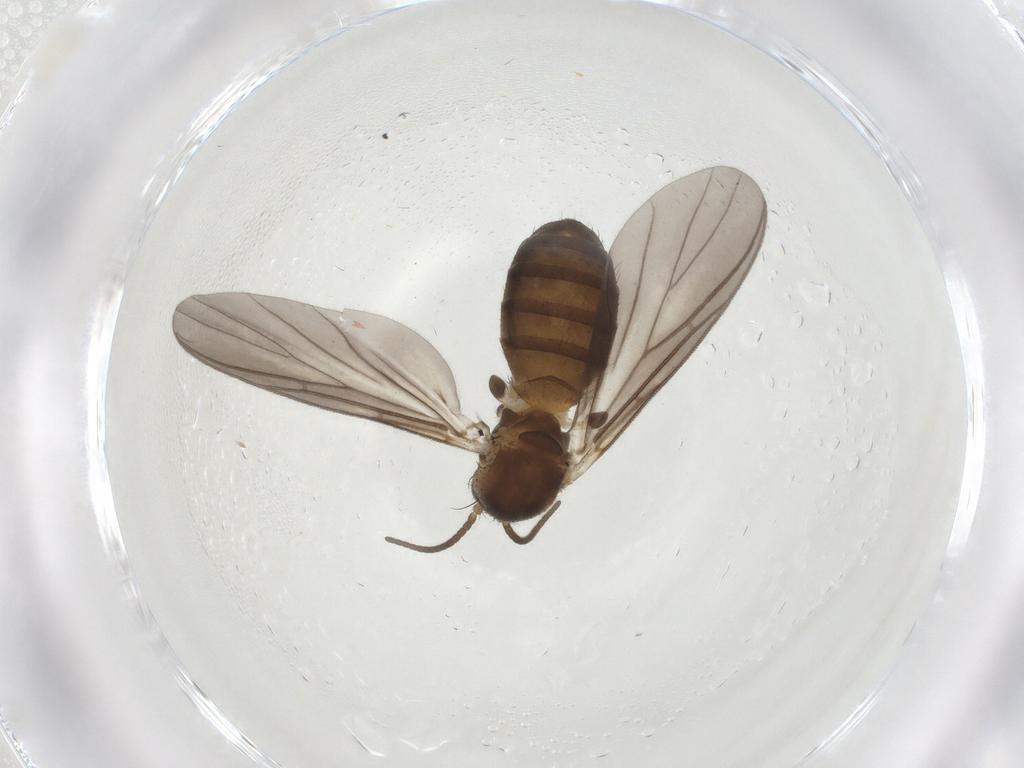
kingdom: Animalia
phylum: Arthropoda
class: Insecta
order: Diptera
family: Mycetophilidae
